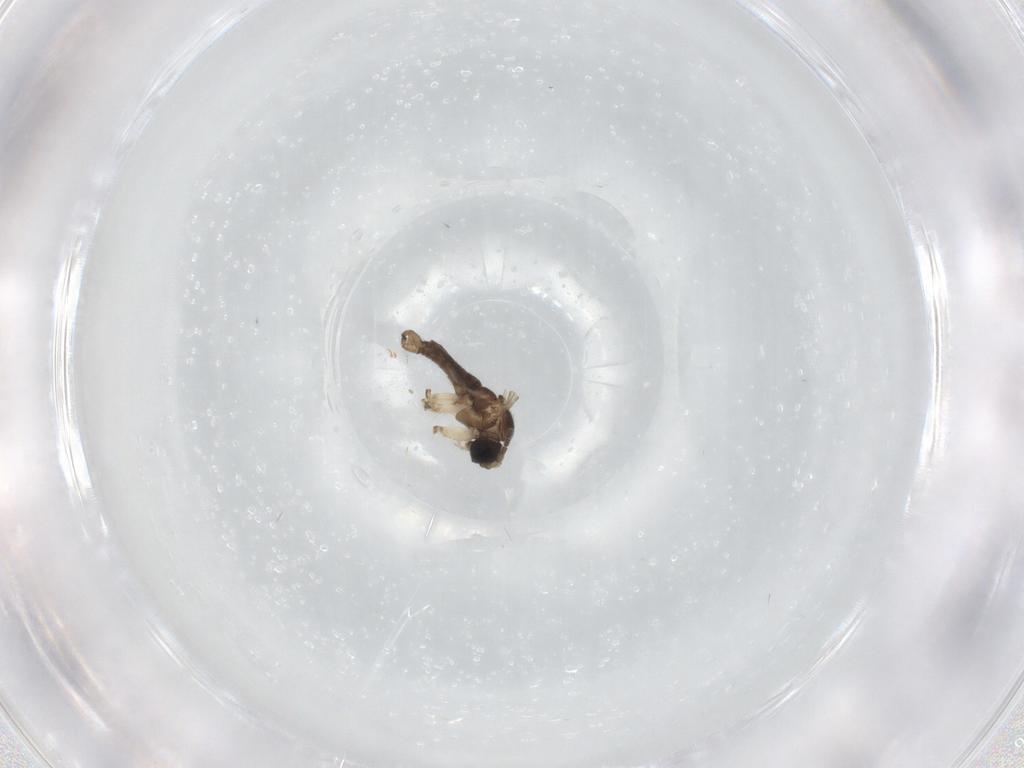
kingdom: Animalia
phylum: Arthropoda
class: Insecta
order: Diptera
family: Sciaridae
